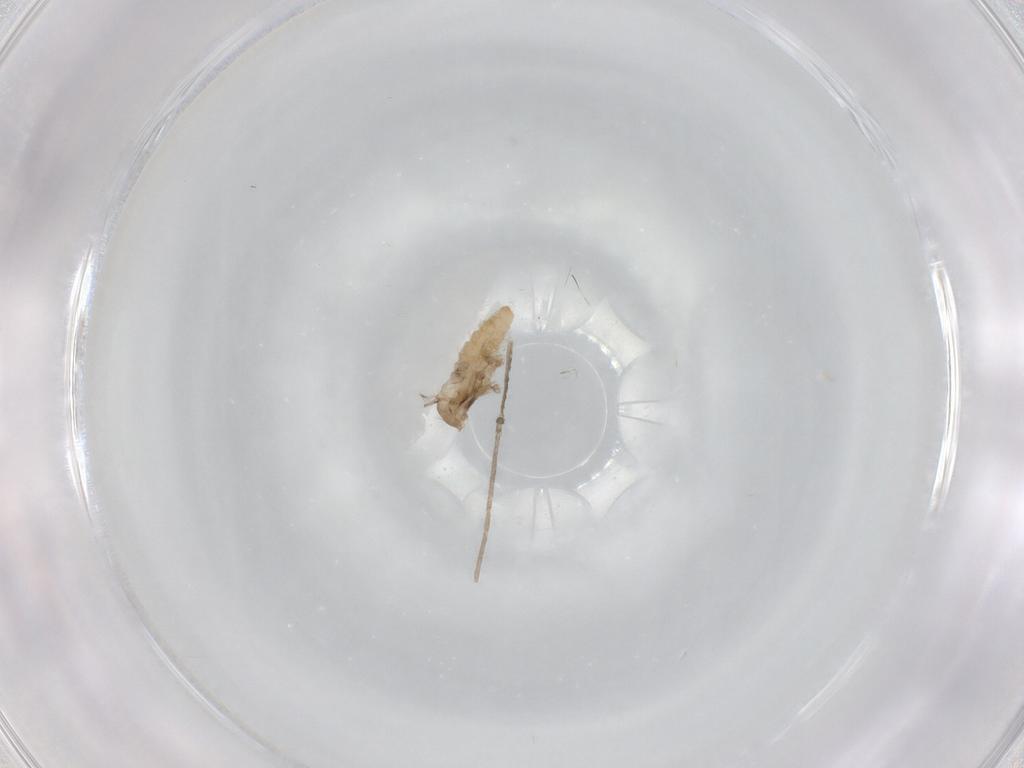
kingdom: Animalia
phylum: Arthropoda
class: Insecta
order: Diptera
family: Cecidomyiidae
